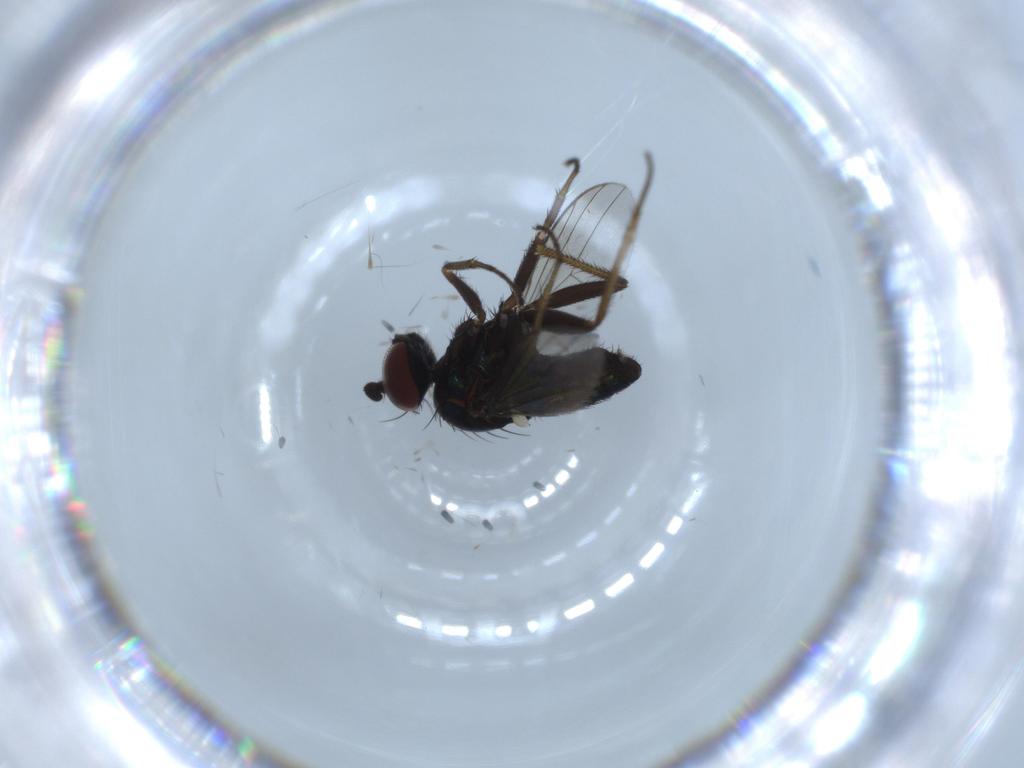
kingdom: Animalia
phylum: Arthropoda
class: Insecta
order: Diptera
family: Dolichopodidae
